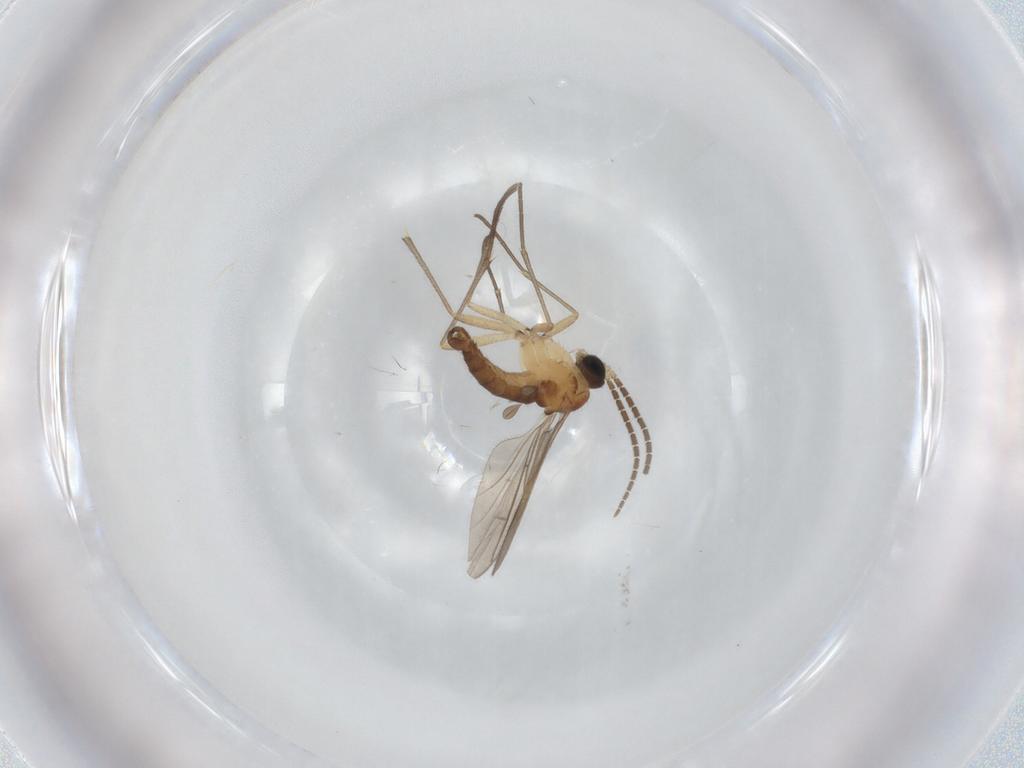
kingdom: Animalia
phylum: Arthropoda
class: Insecta
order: Diptera
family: Sciaridae
